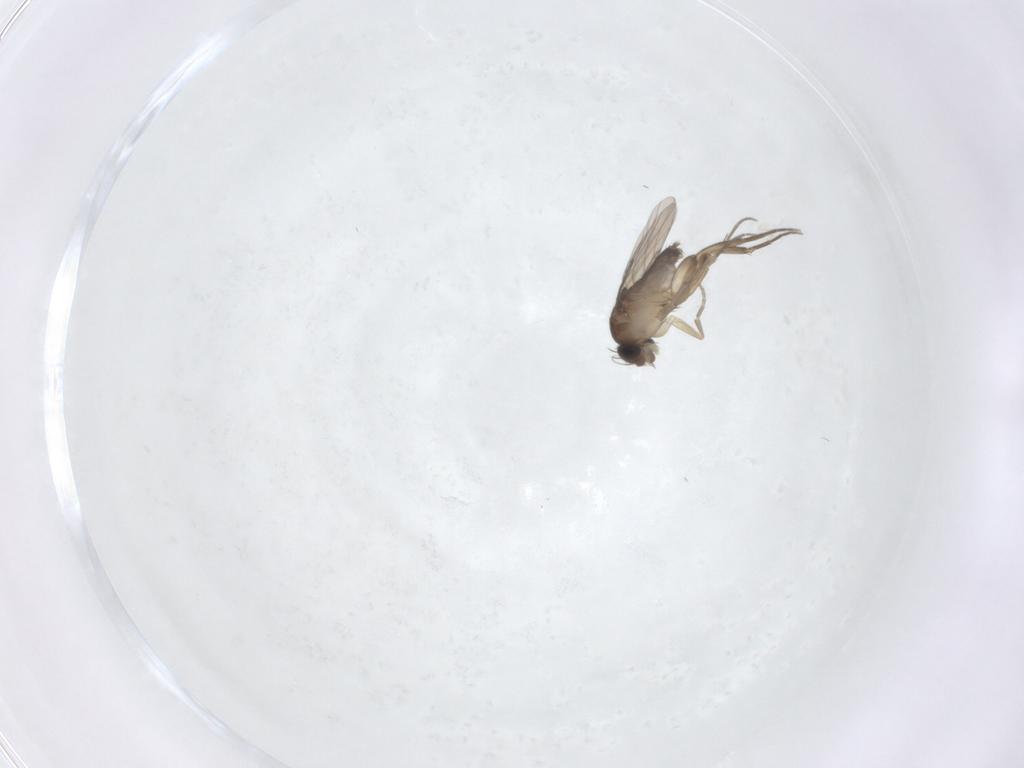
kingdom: Animalia
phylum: Arthropoda
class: Insecta
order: Diptera
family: Phoridae
